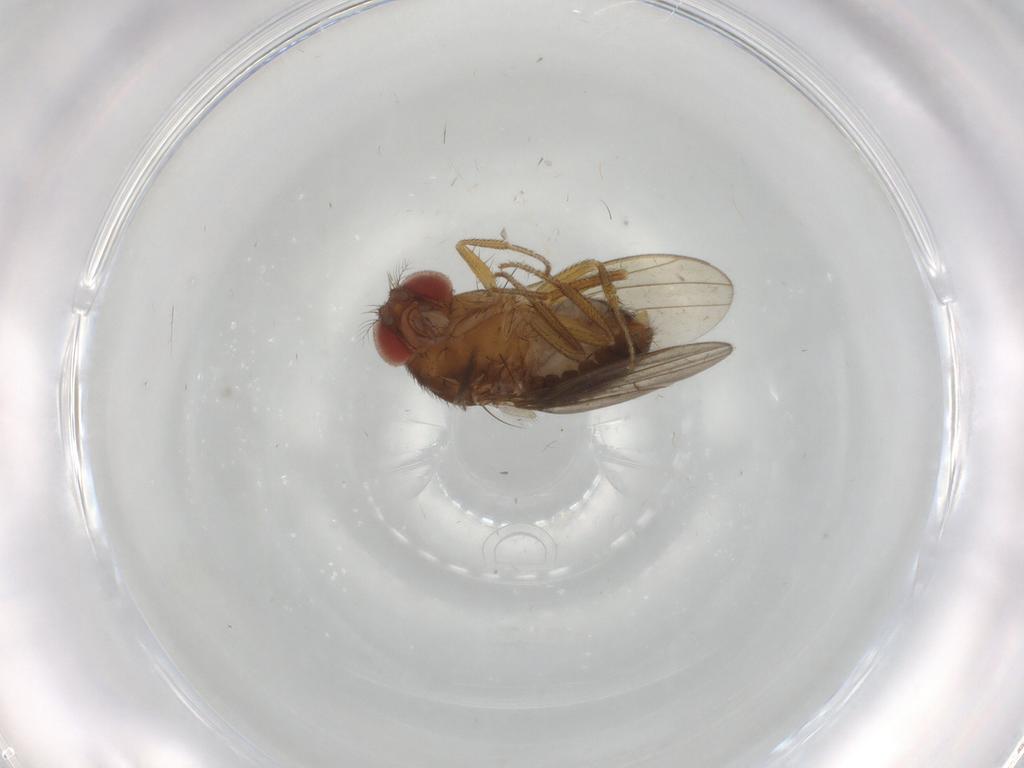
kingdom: Animalia
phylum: Arthropoda
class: Insecta
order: Diptera
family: Drosophilidae
